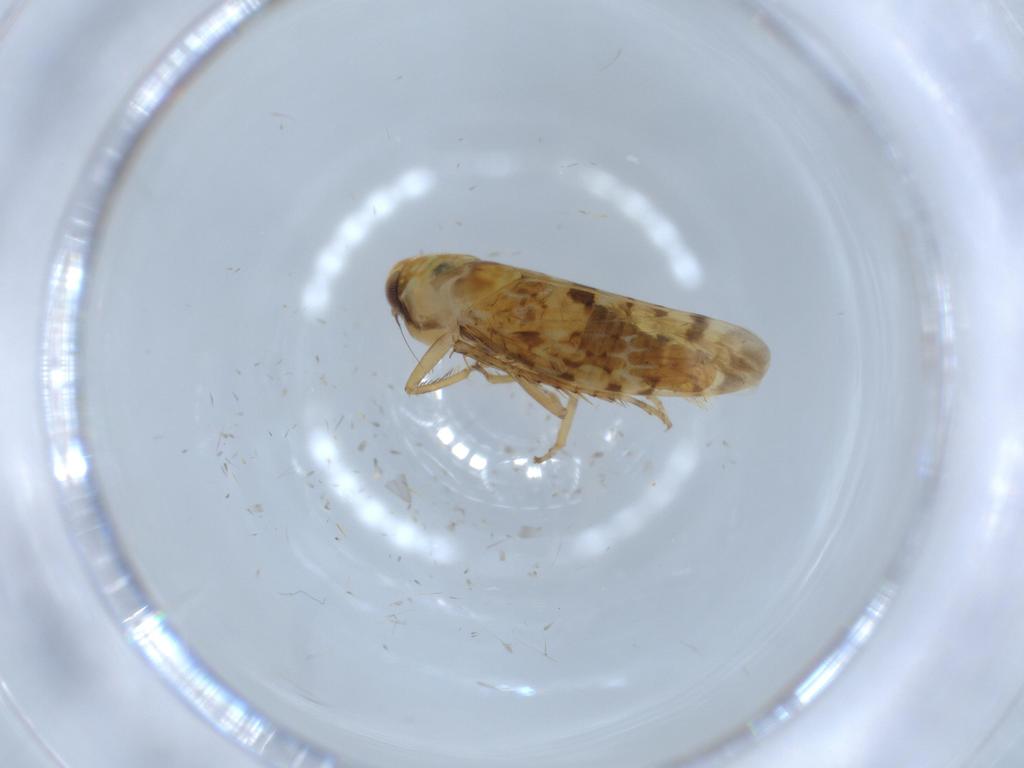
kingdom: Animalia
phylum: Arthropoda
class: Insecta
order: Hemiptera
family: Cicadellidae
